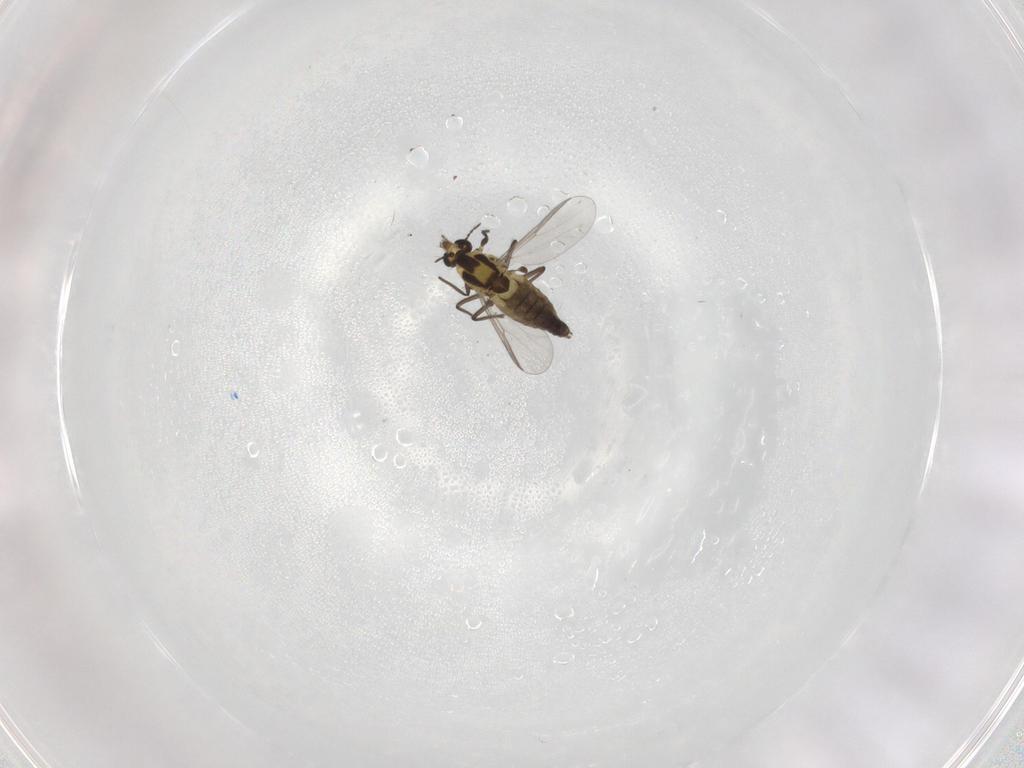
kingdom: Animalia
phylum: Arthropoda
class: Insecta
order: Diptera
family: Chironomidae
